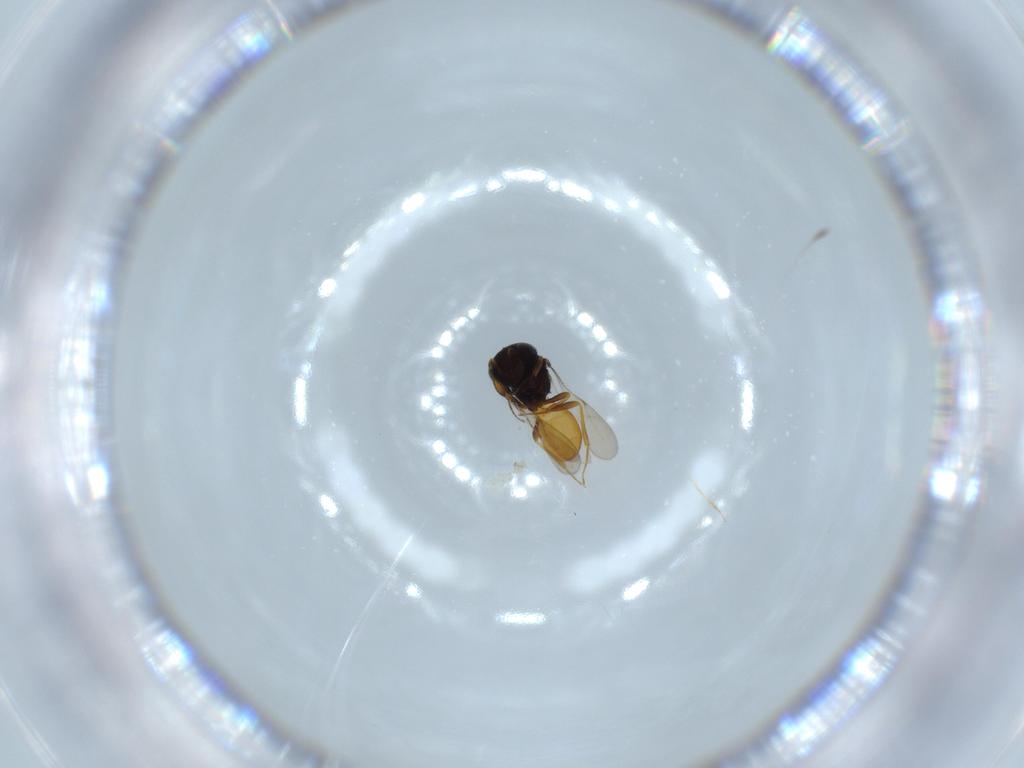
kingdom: Animalia
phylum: Arthropoda
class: Insecta
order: Hymenoptera
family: Scelionidae
